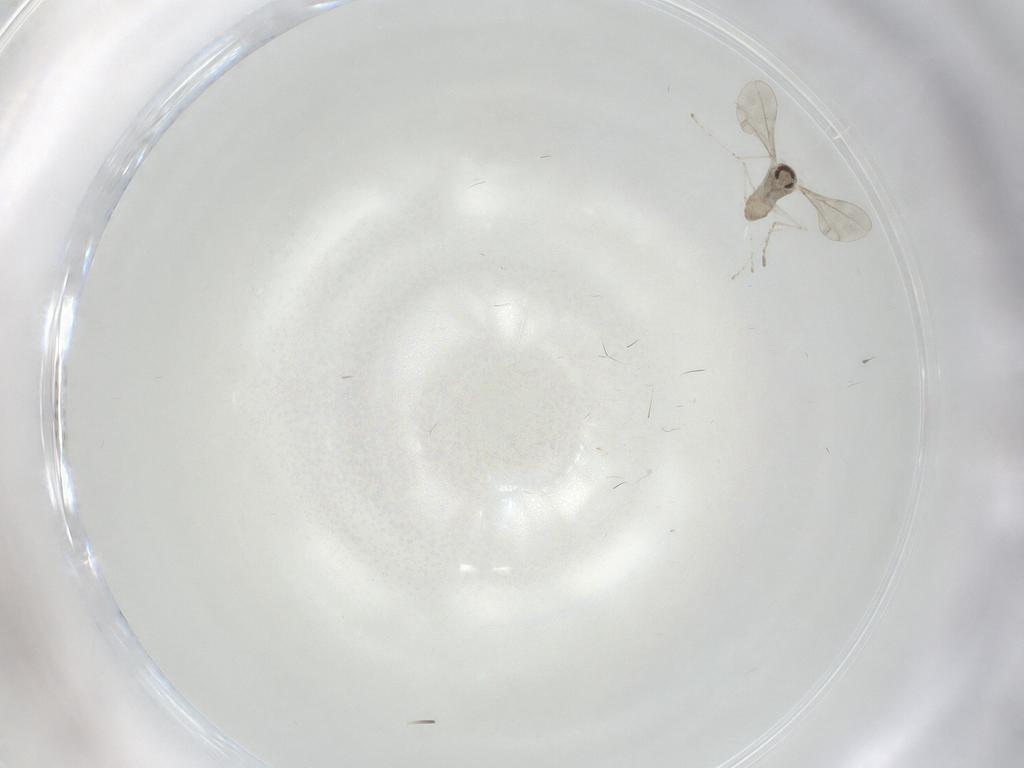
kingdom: Animalia
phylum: Arthropoda
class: Insecta
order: Diptera
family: Cecidomyiidae
